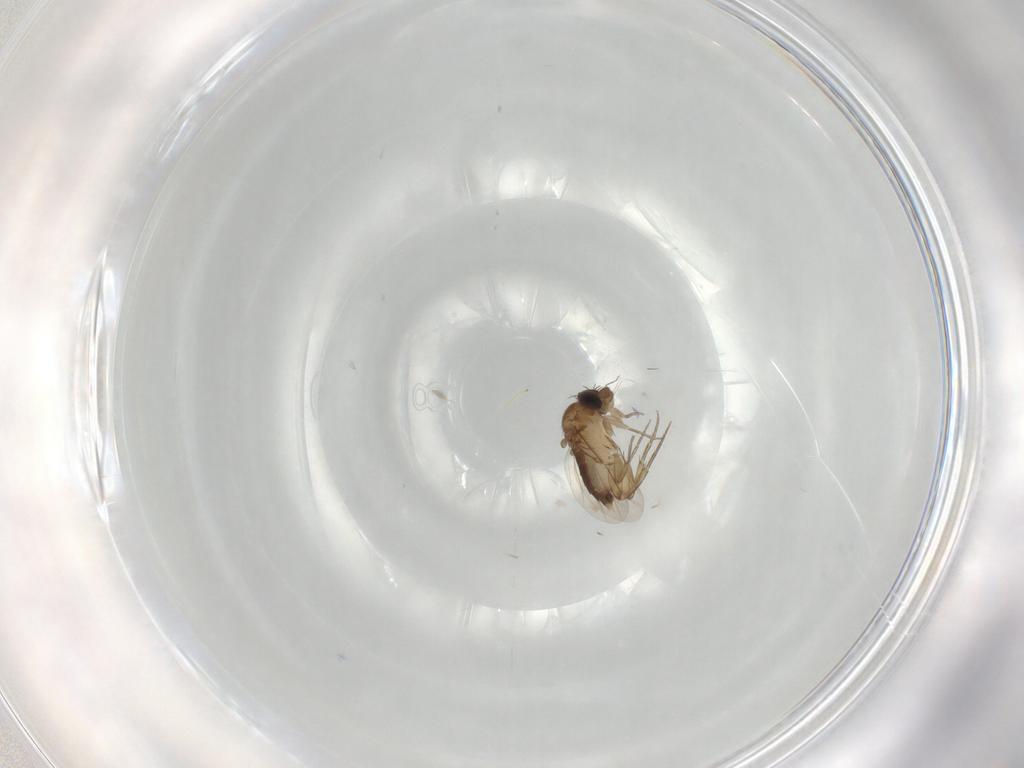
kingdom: Animalia
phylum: Arthropoda
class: Insecta
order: Diptera
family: Phoridae
